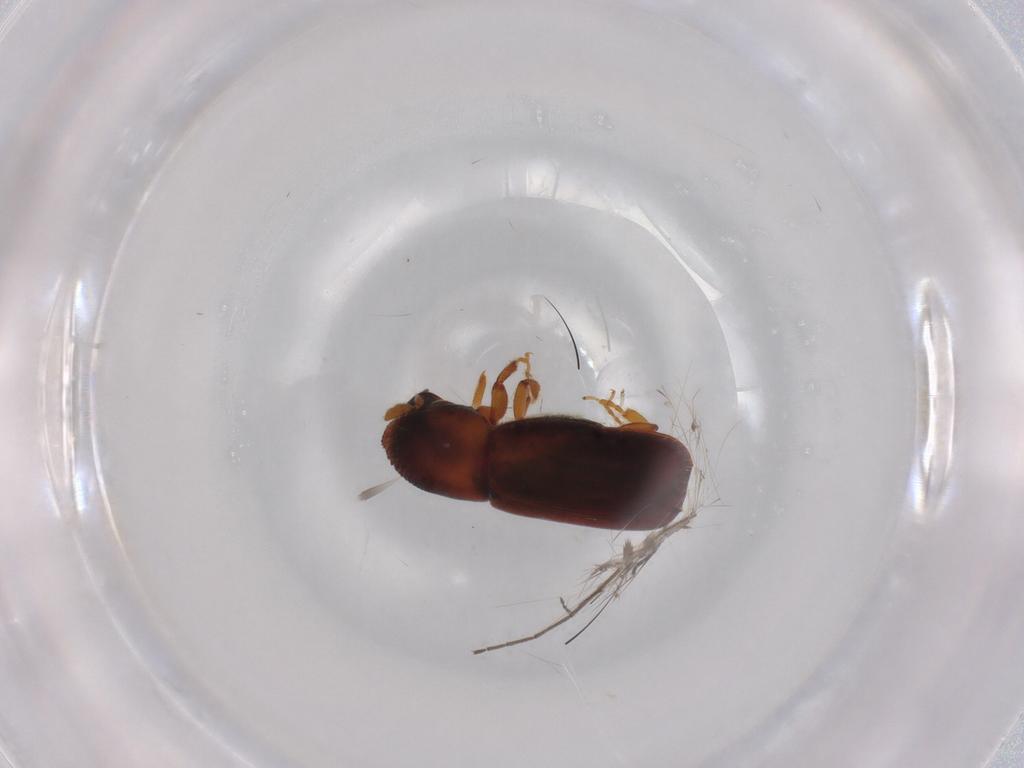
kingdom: Animalia
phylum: Arthropoda
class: Insecta
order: Coleoptera
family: Curculionidae
